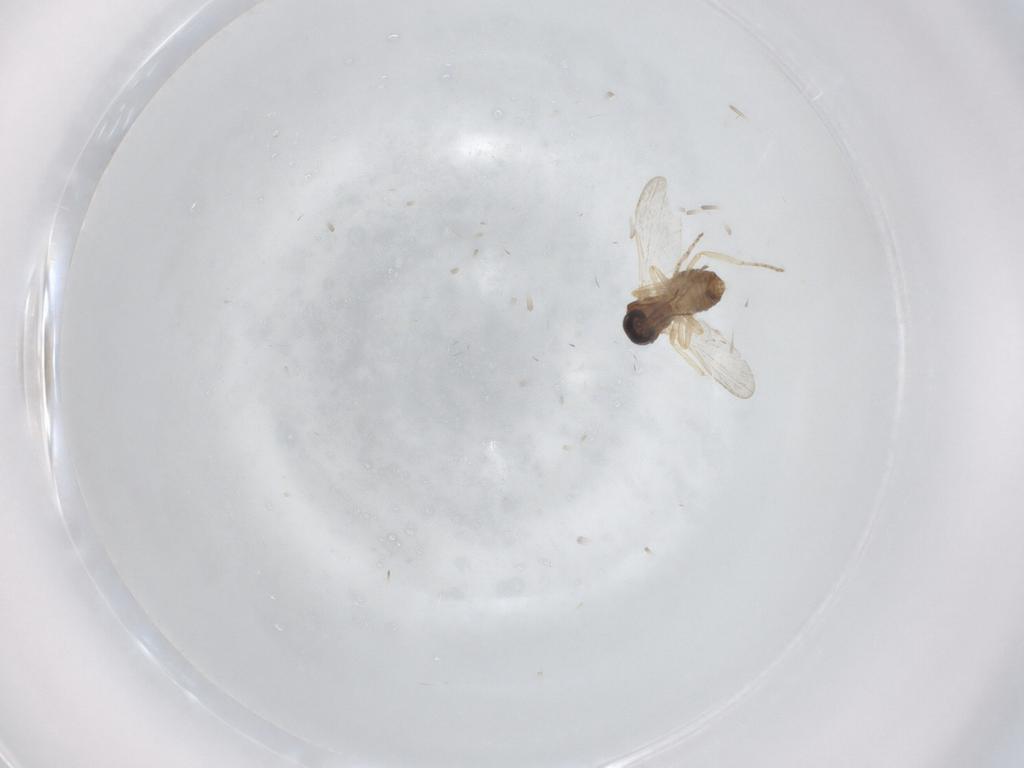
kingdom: Animalia
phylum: Arthropoda
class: Insecta
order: Diptera
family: Ceratopogonidae
